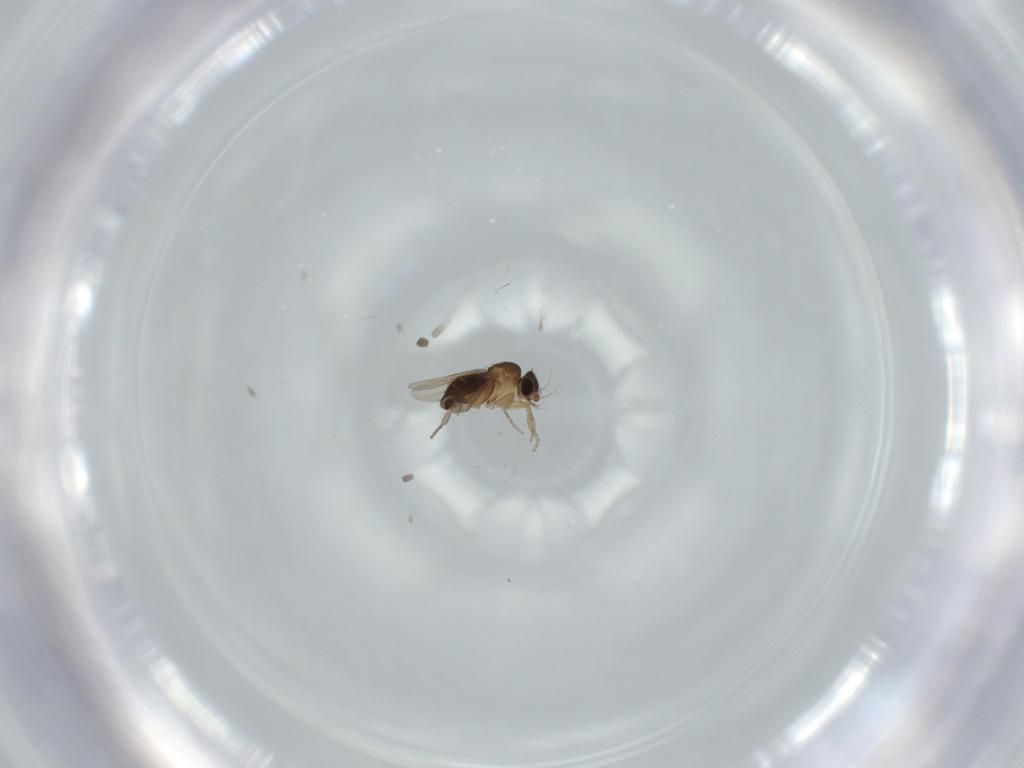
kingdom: Animalia
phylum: Arthropoda
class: Insecta
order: Diptera
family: Phoridae
